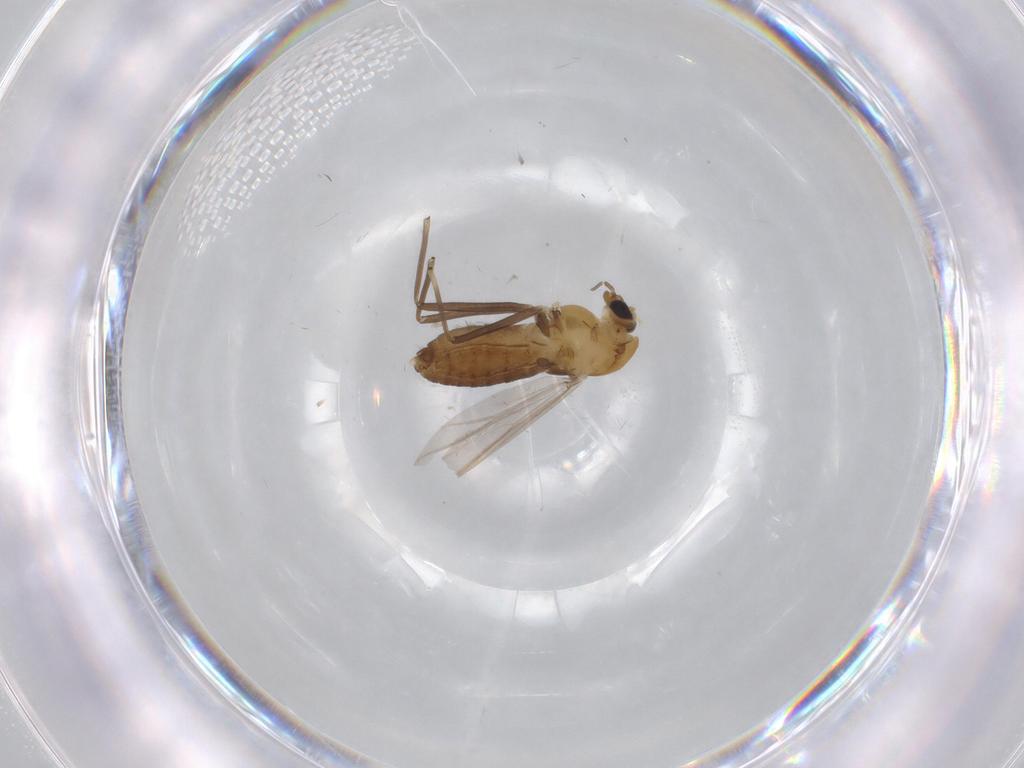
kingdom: Animalia
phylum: Arthropoda
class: Insecta
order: Diptera
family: Chironomidae
